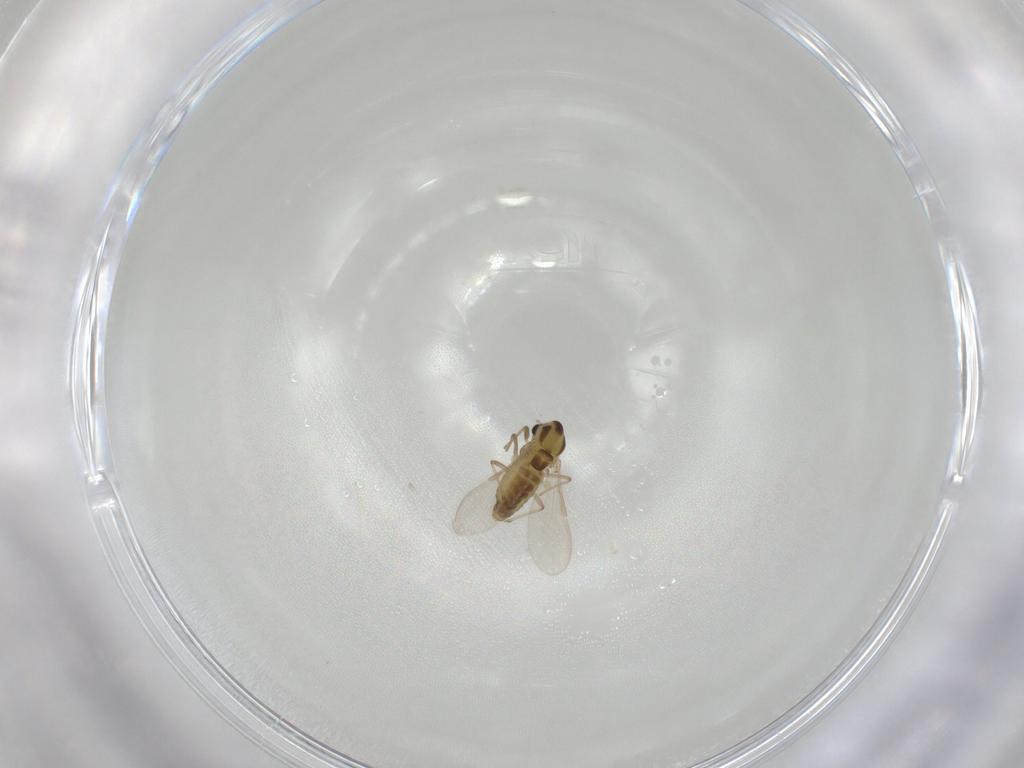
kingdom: Animalia
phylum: Arthropoda
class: Insecta
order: Diptera
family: Chironomidae
